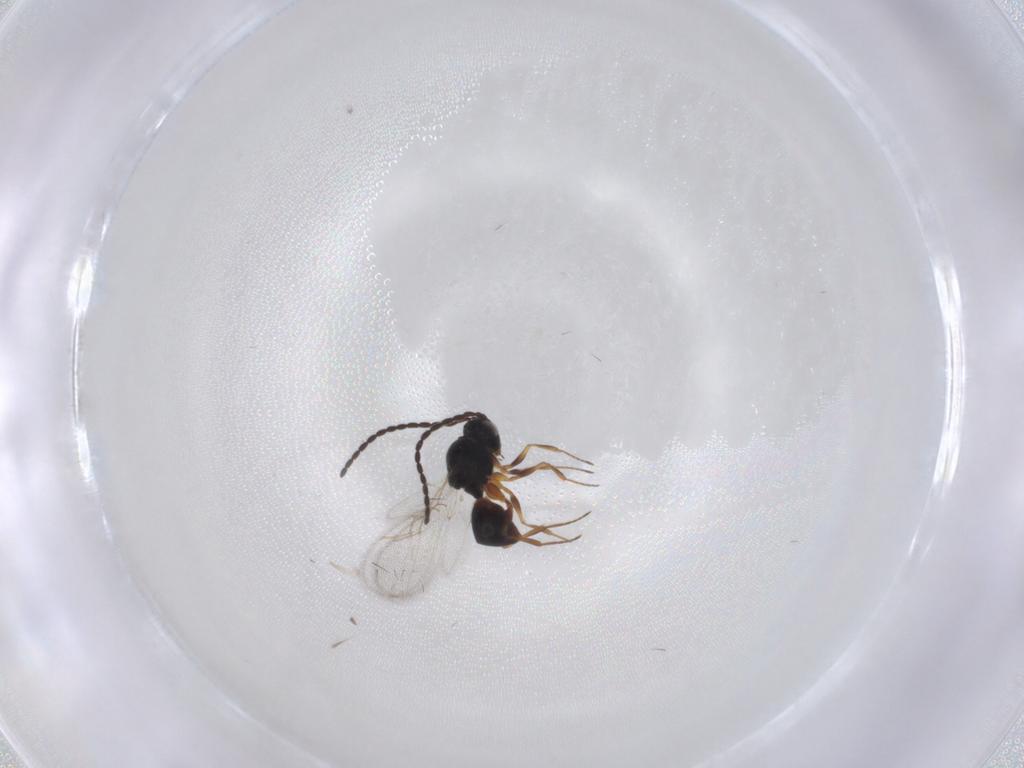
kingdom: Animalia
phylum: Arthropoda
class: Insecta
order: Hymenoptera
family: Figitidae
